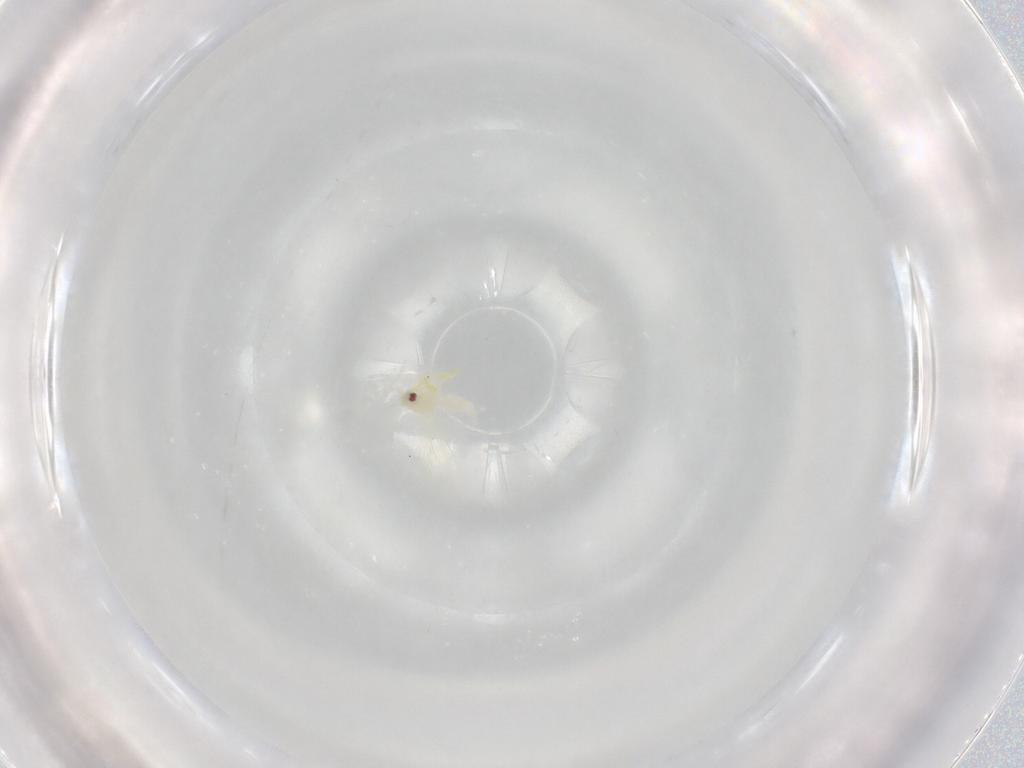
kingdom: Animalia
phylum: Arthropoda
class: Insecta
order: Hemiptera
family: Aleyrodidae
